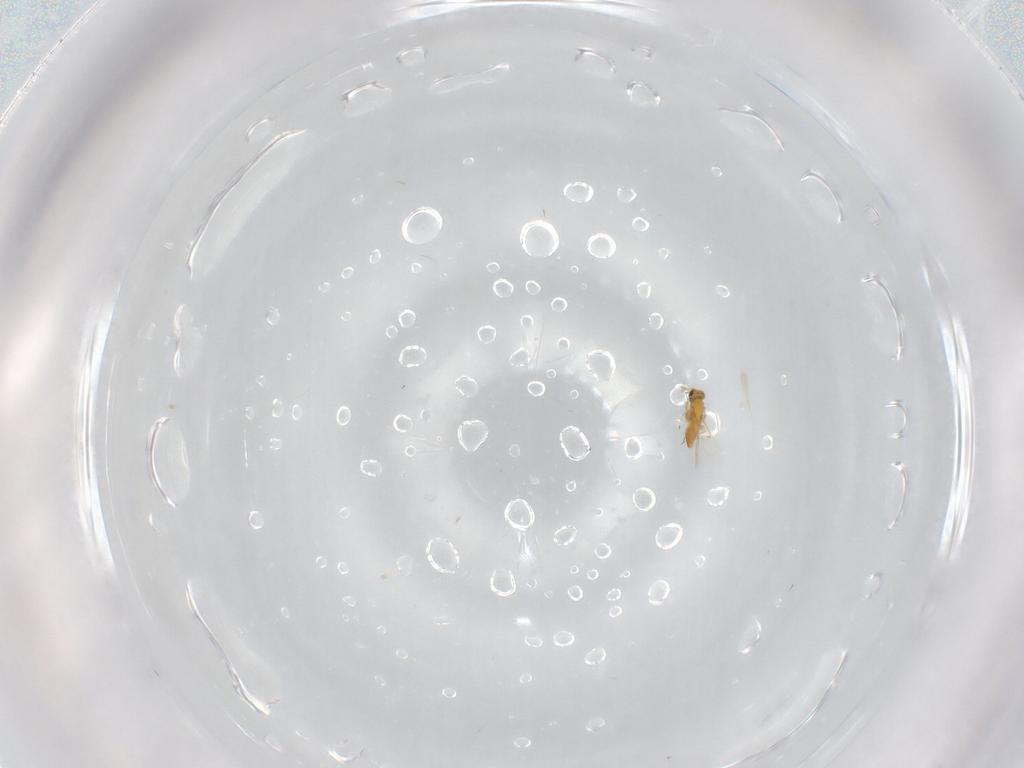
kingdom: Animalia
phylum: Arthropoda
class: Insecta
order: Hymenoptera
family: Trichogrammatidae
